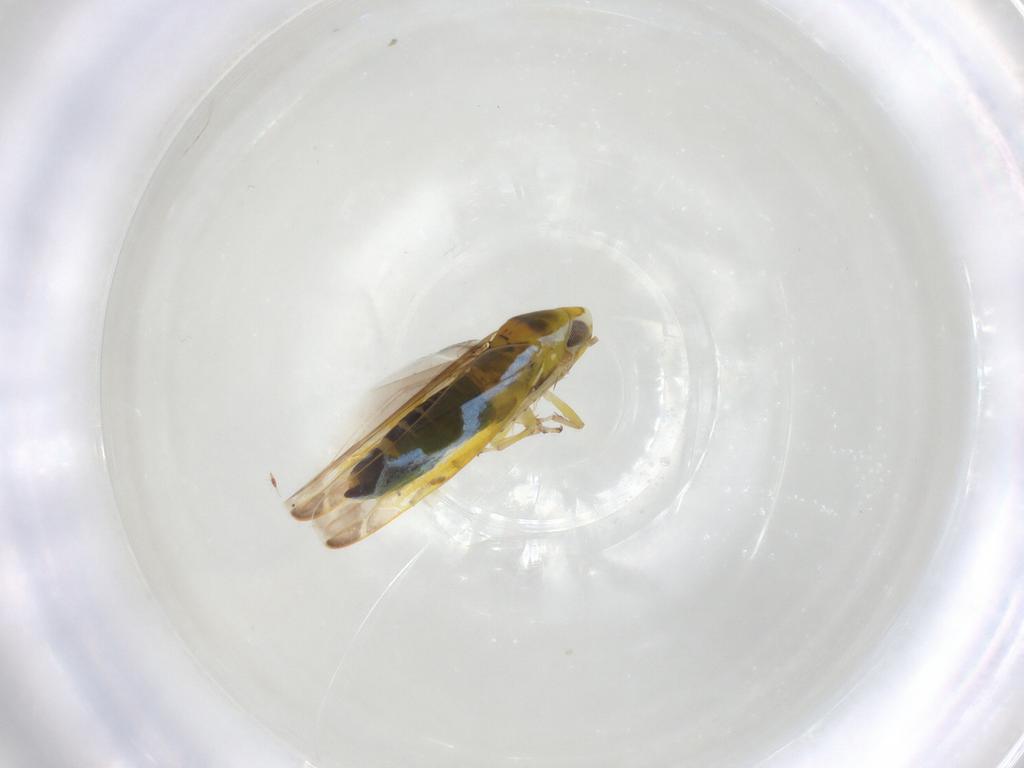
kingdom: Animalia
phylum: Arthropoda
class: Insecta
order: Hemiptera
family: Cicadellidae
